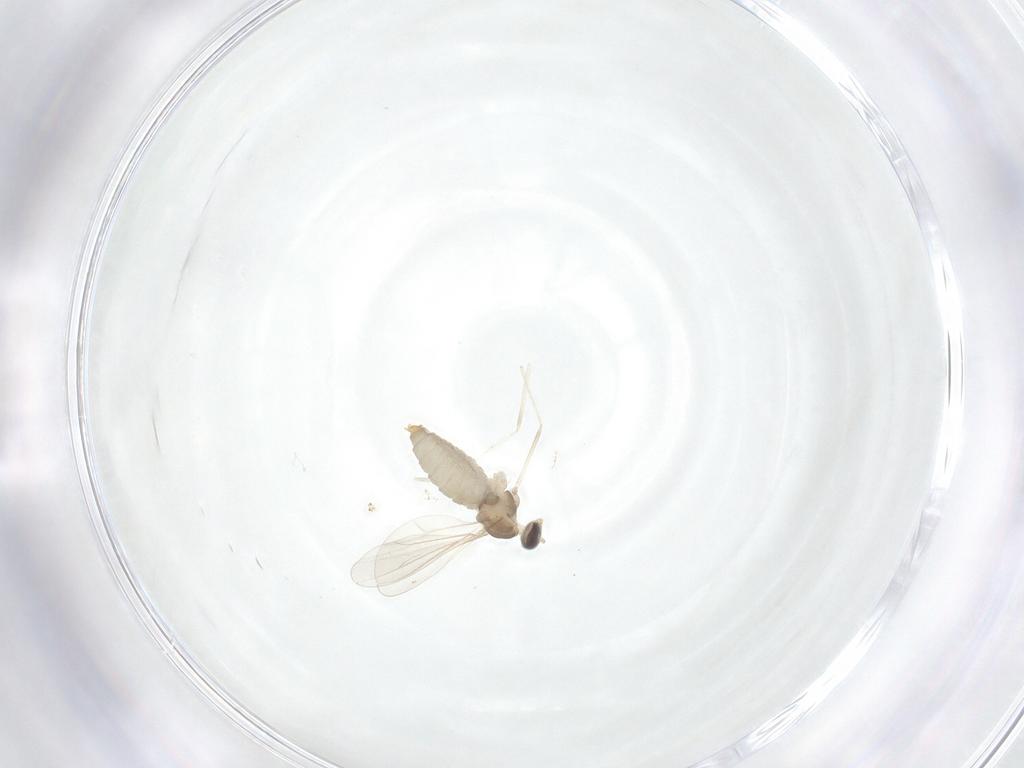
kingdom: Animalia
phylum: Arthropoda
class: Insecta
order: Diptera
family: Cecidomyiidae
